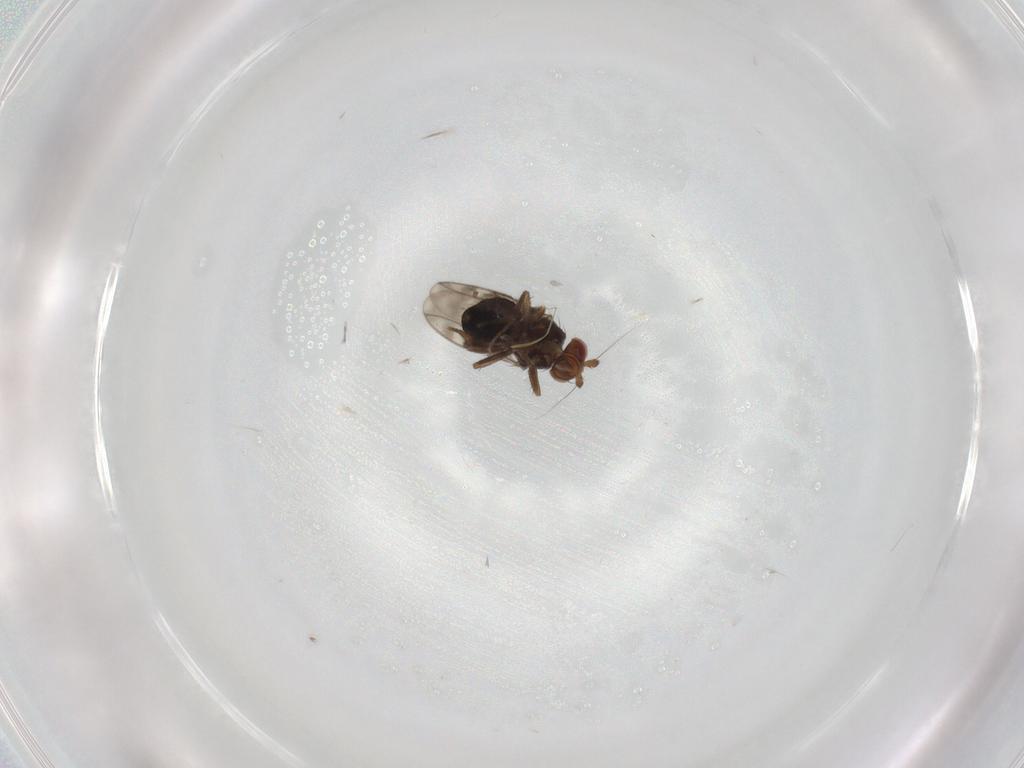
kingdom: Animalia
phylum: Arthropoda
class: Insecta
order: Diptera
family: Sphaeroceridae
